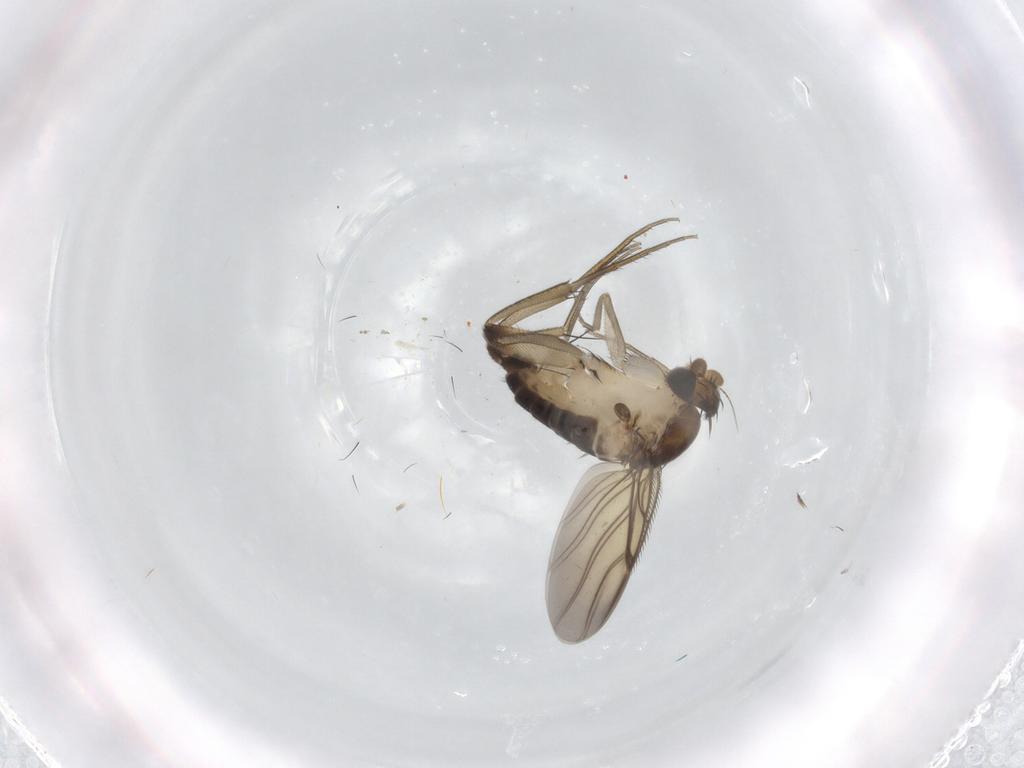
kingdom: Animalia
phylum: Arthropoda
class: Insecta
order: Diptera
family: Phoridae
